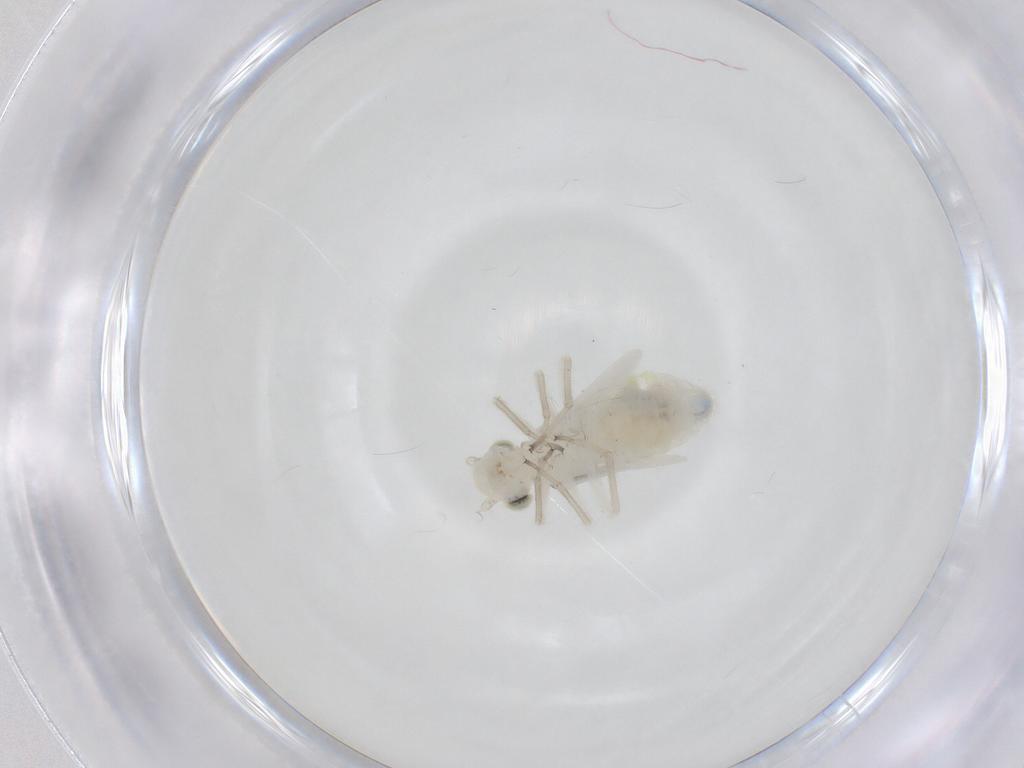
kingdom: Animalia
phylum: Arthropoda
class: Insecta
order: Psocodea
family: Caeciliusidae
